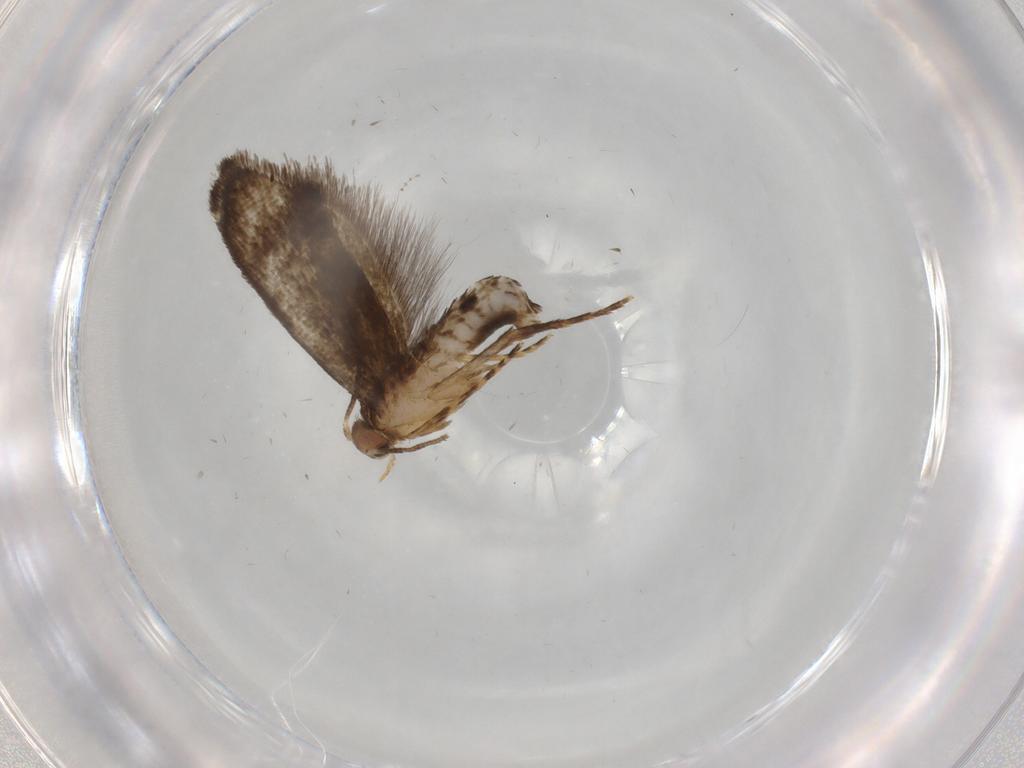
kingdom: Animalia
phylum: Arthropoda
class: Insecta
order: Lepidoptera
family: Tineidae
